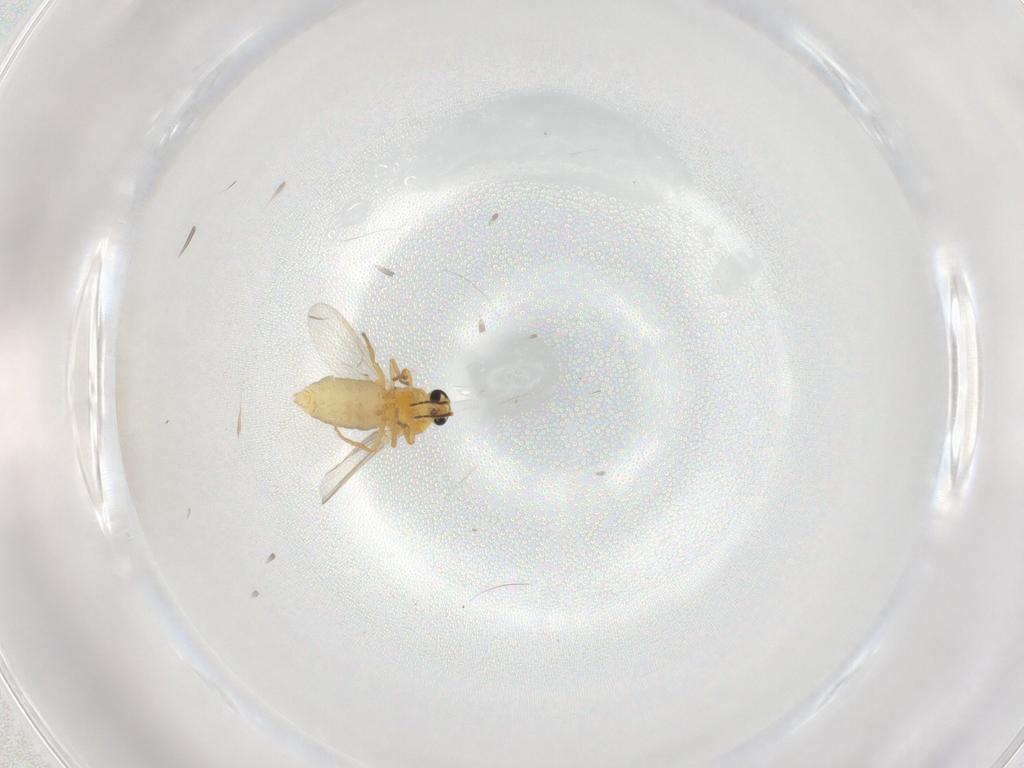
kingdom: Animalia
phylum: Arthropoda
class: Insecta
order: Diptera
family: Ceratopogonidae
